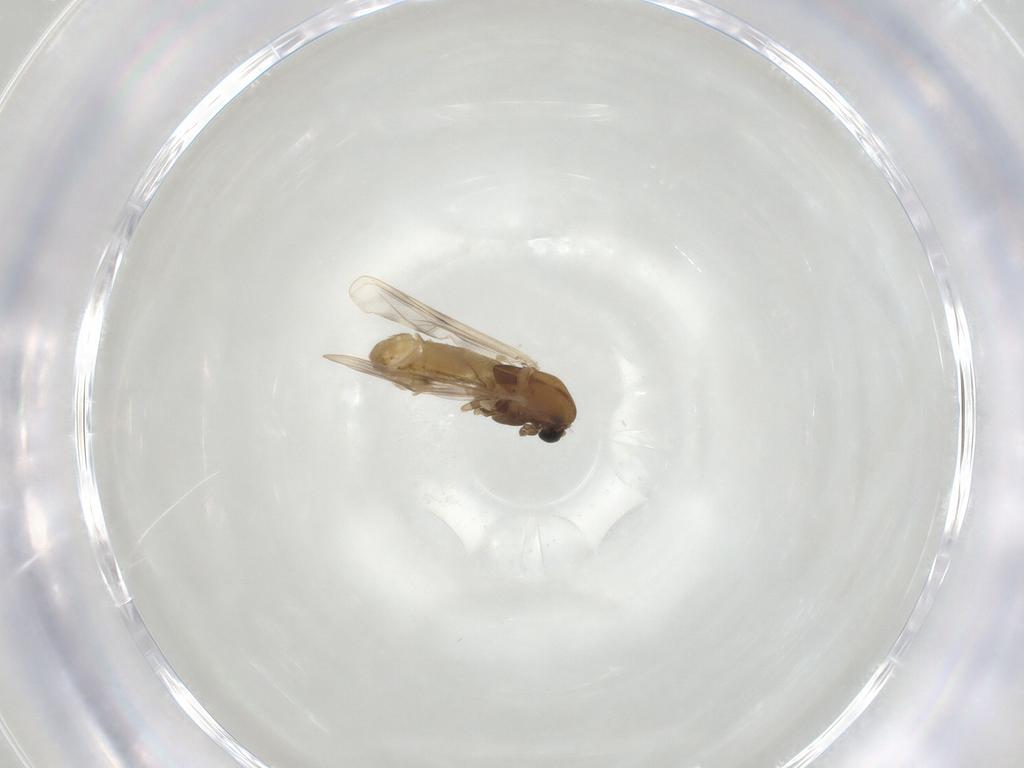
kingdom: Animalia
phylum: Arthropoda
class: Insecta
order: Diptera
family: Chironomidae
